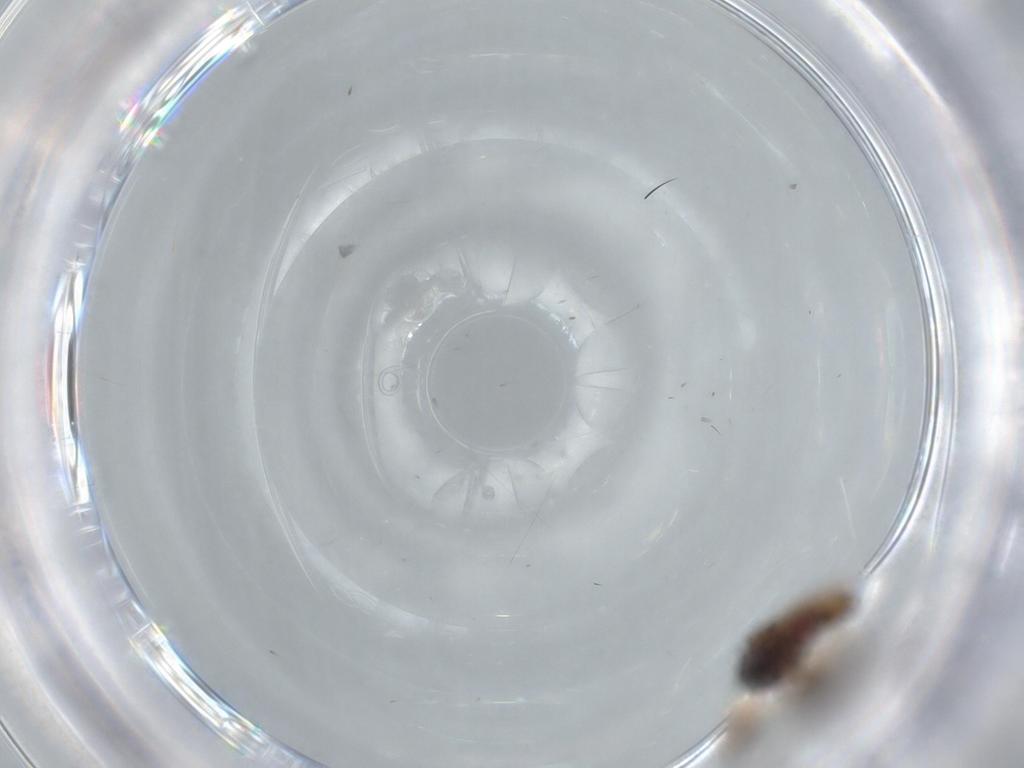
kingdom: Animalia
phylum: Arthropoda
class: Insecta
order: Psocodea
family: Caeciliusidae
